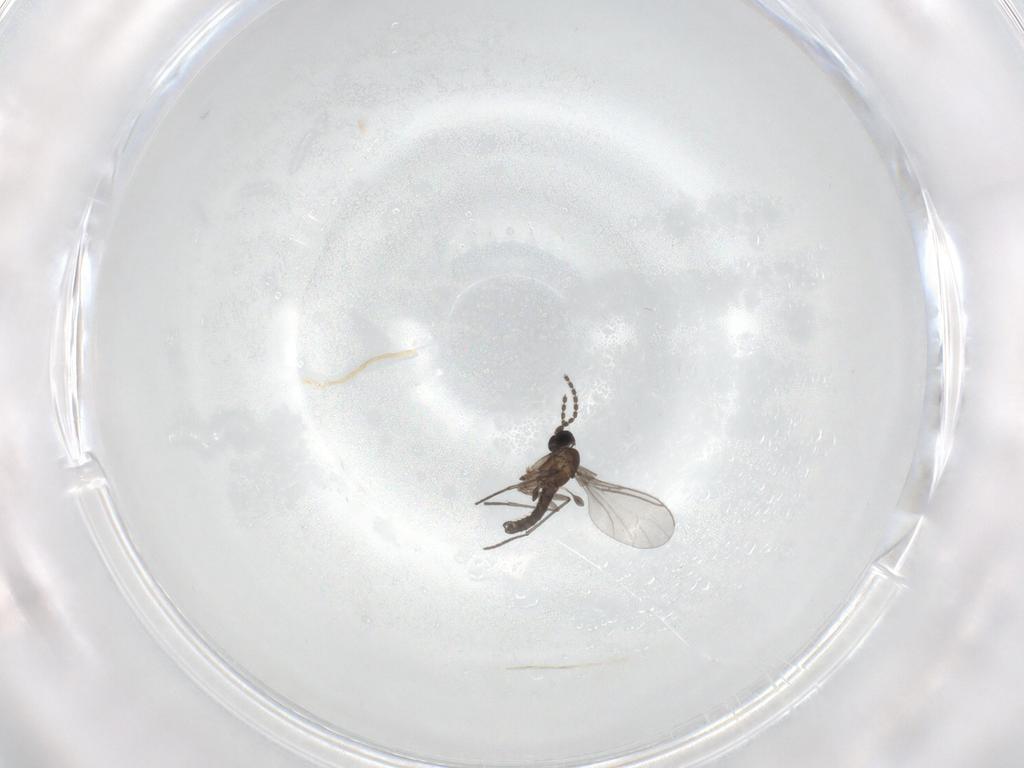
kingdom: Animalia
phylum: Arthropoda
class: Insecta
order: Diptera
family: Sciaridae
